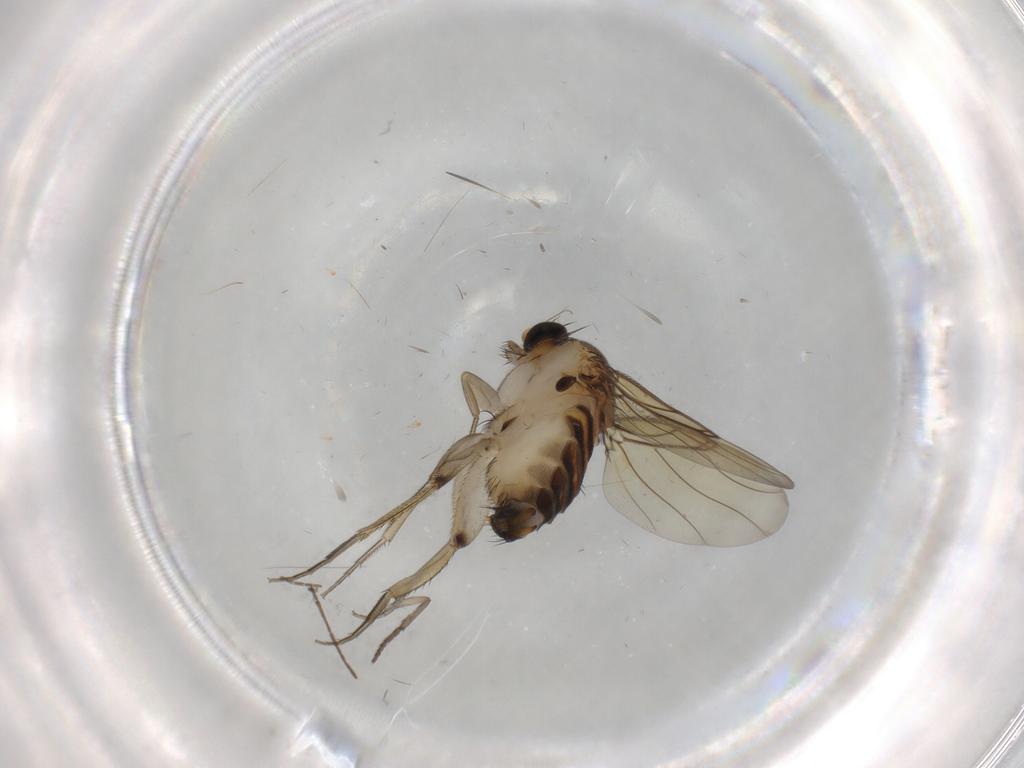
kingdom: Animalia
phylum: Arthropoda
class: Insecta
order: Diptera
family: Phoridae
